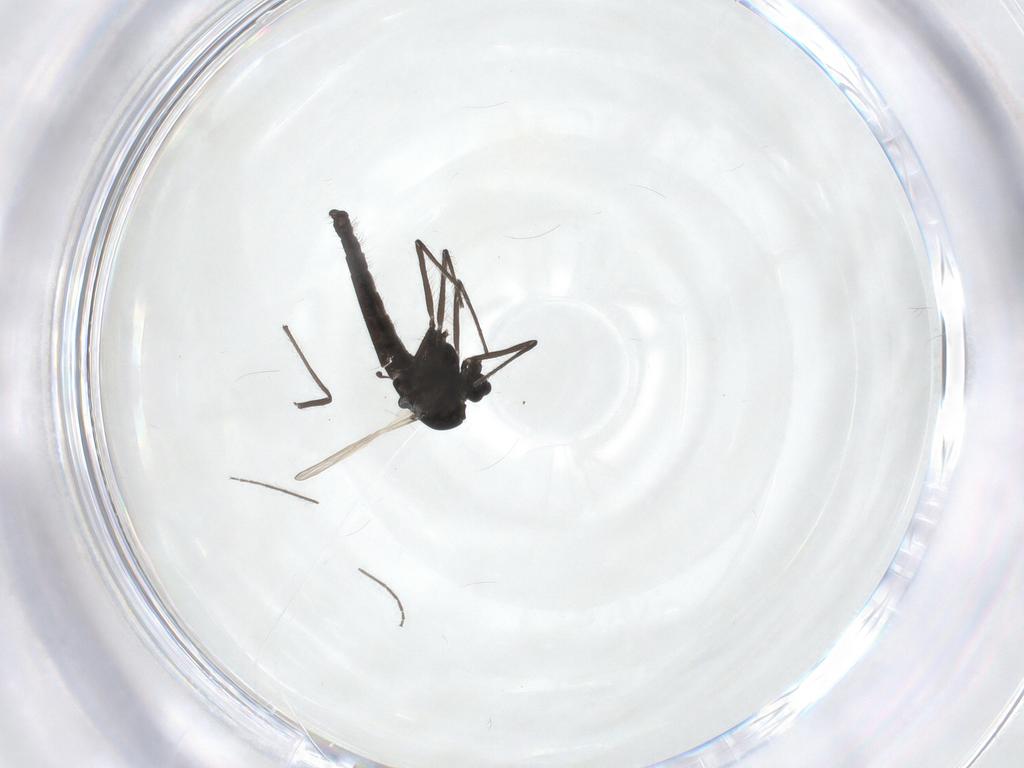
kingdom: Animalia
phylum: Arthropoda
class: Insecta
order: Diptera
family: Chironomidae
